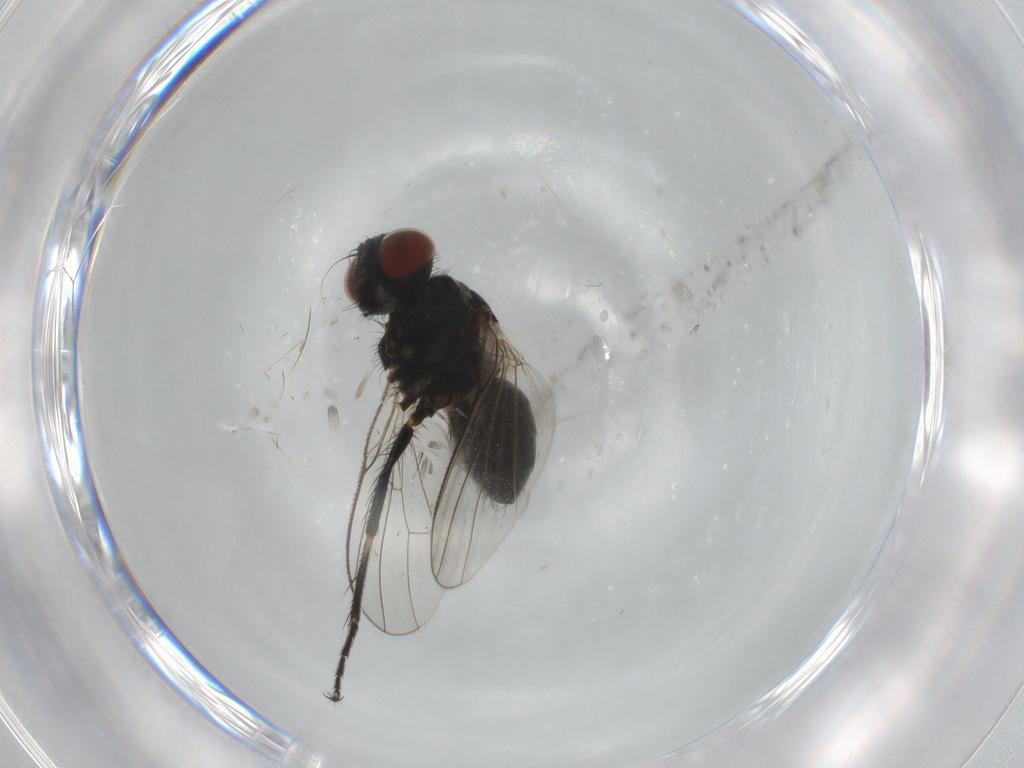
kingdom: Animalia
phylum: Arthropoda
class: Insecta
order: Diptera
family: Muscidae
